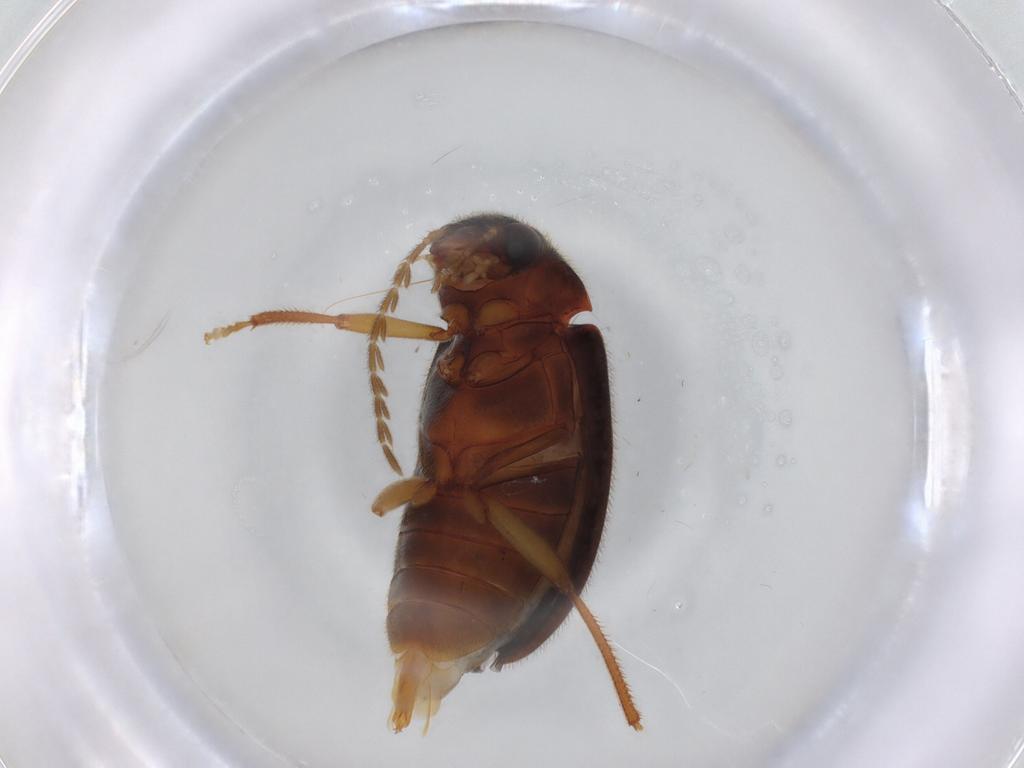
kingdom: Animalia
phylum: Arthropoda
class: Insecta
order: Coleoptera
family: Ptilodactylidae
